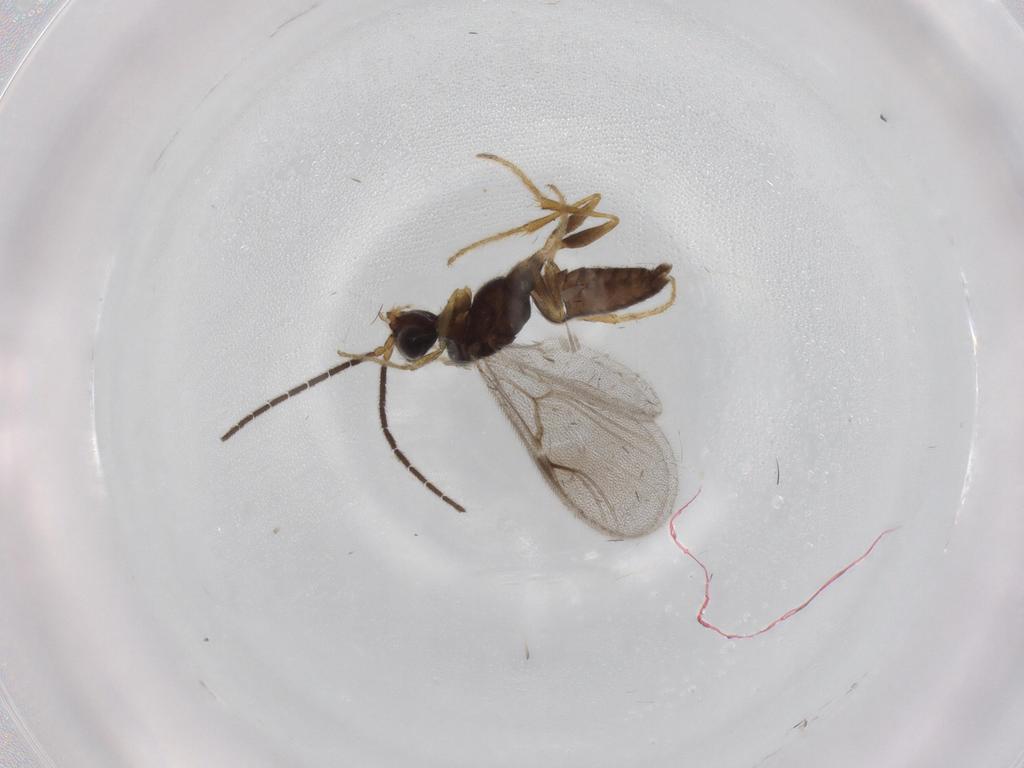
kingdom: Animalia
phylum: Arthropoda
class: Insecta
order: Hymenoptera
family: Dryinidae
